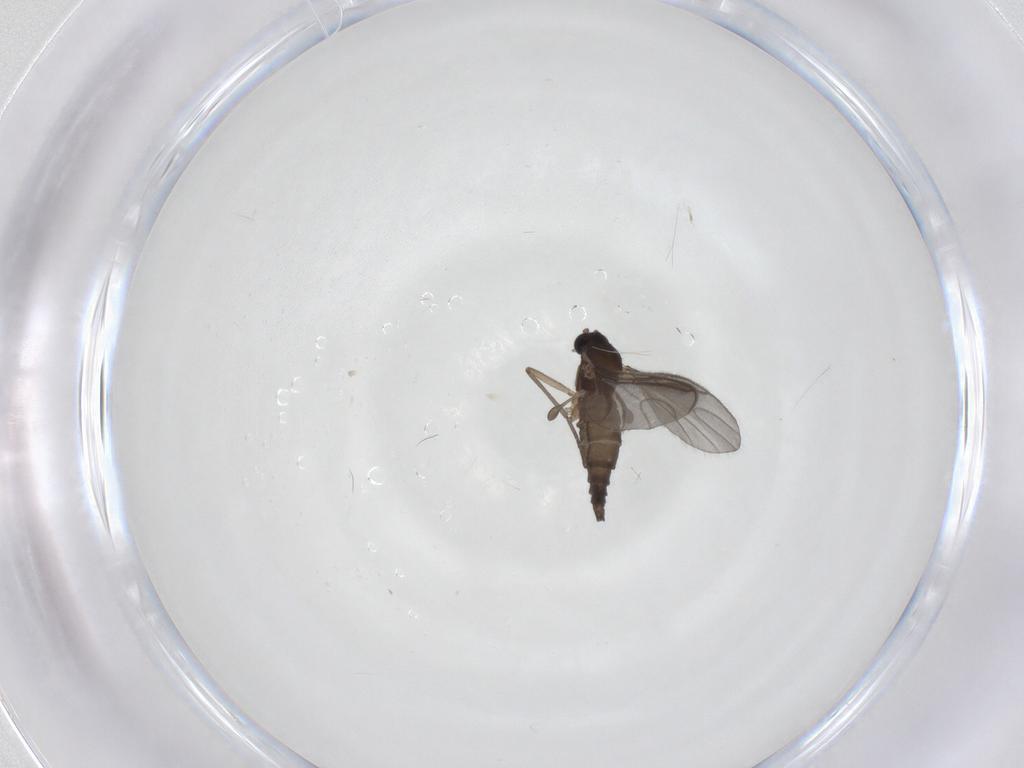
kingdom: Animalia
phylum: Arthropoda
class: Insecta
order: Diptera
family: Sciaridae
